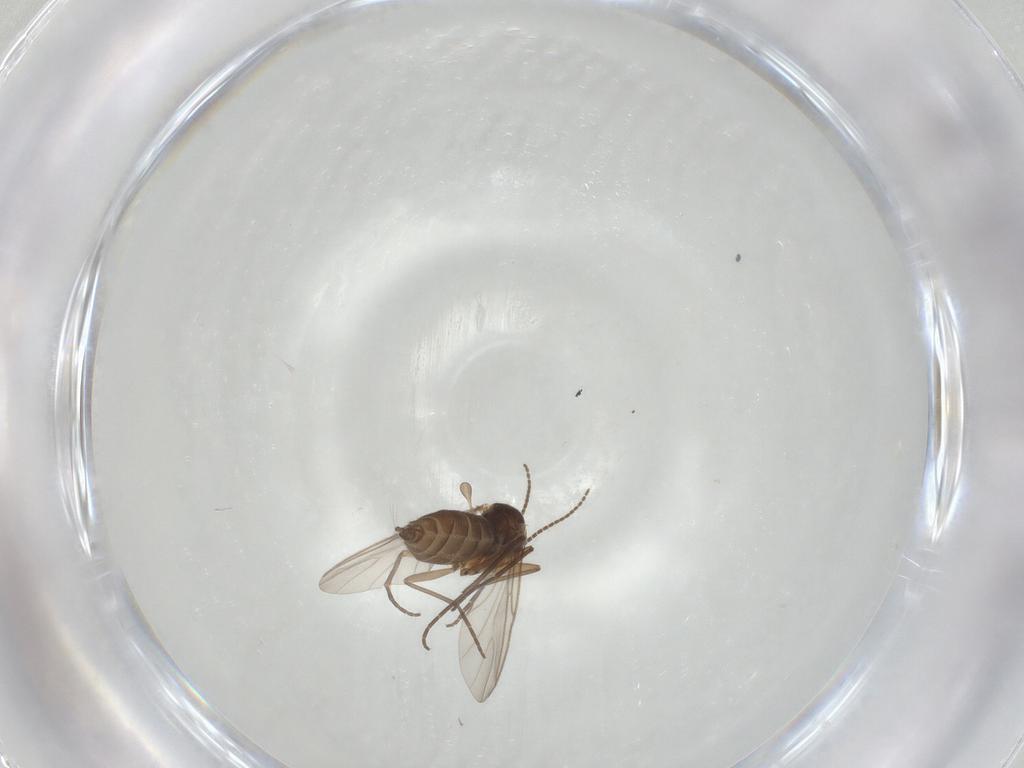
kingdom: Animalia
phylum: Arthropoda
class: Insecta
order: Diptera
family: Sciaridae
